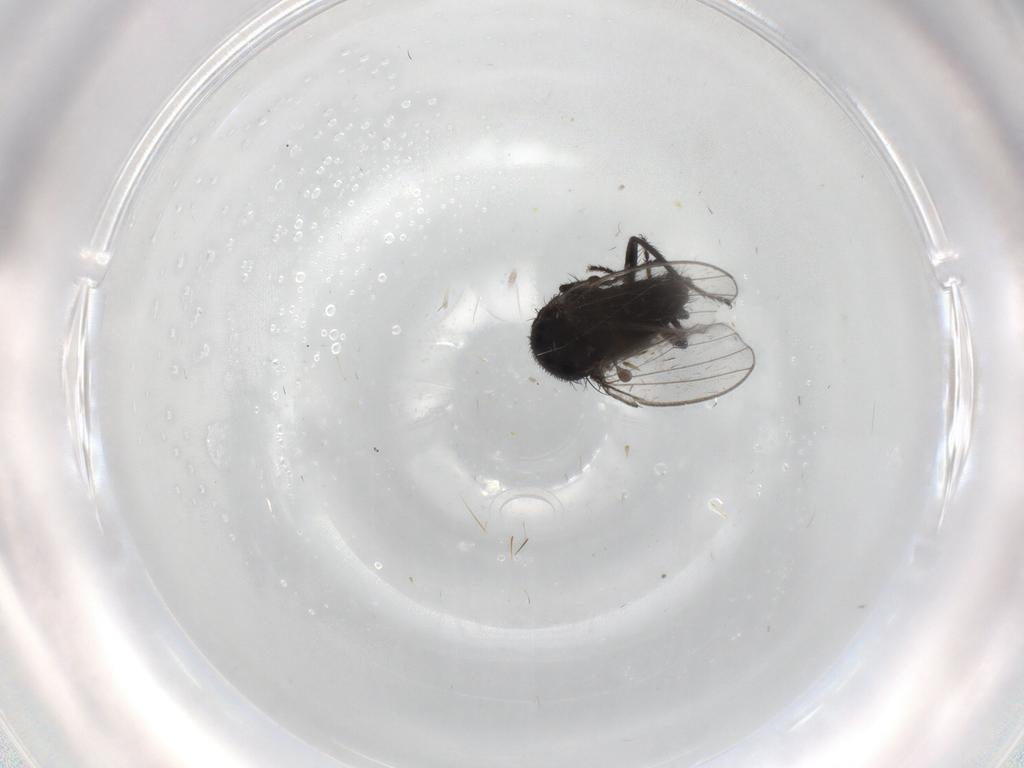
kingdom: Animalia
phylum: Arthropoda
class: Insecta
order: Diptera
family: Milichiidae
